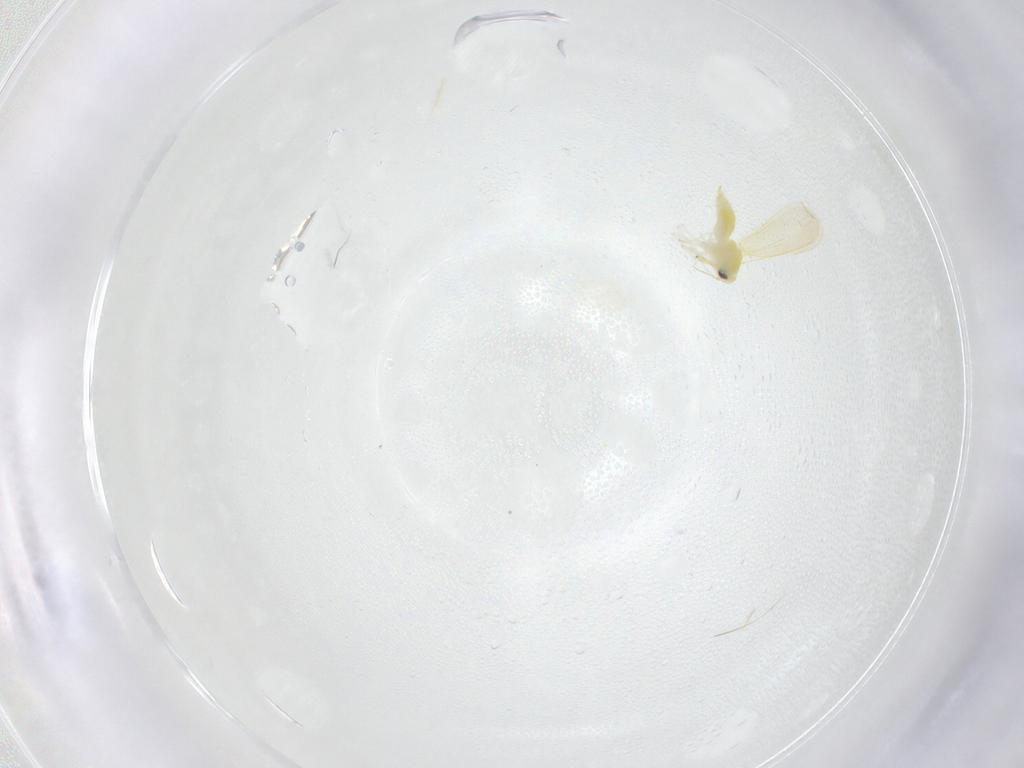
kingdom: Animalia
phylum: Arthropoda
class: Insecta
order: Hemiptera
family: Aleyrodidae
